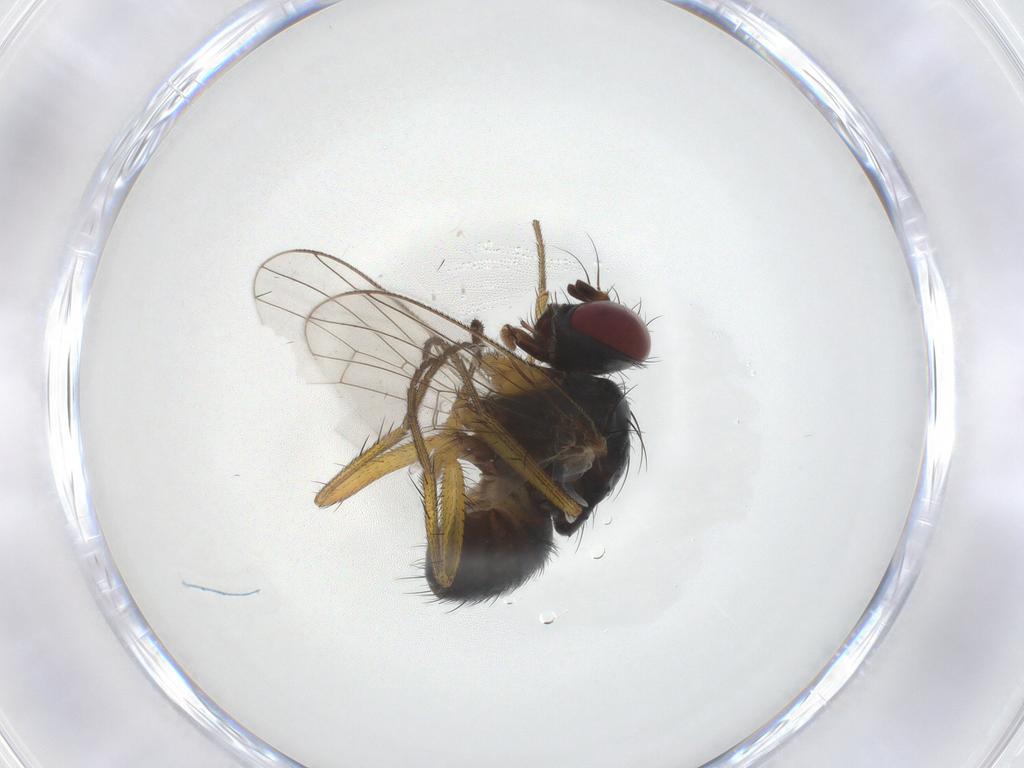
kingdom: Animalia
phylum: Arthropoda
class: Insecta
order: Diptera
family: Muscidae
